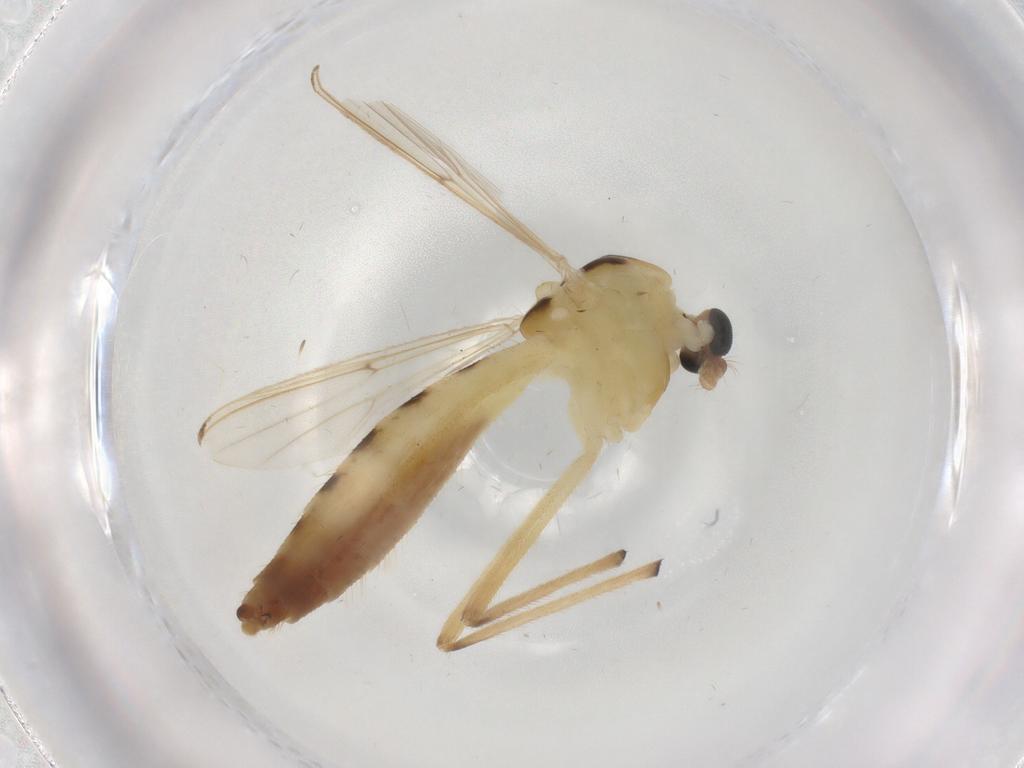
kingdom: Animalia
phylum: Arthropoda
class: Insecta
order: Diptera
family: Chironomidae
